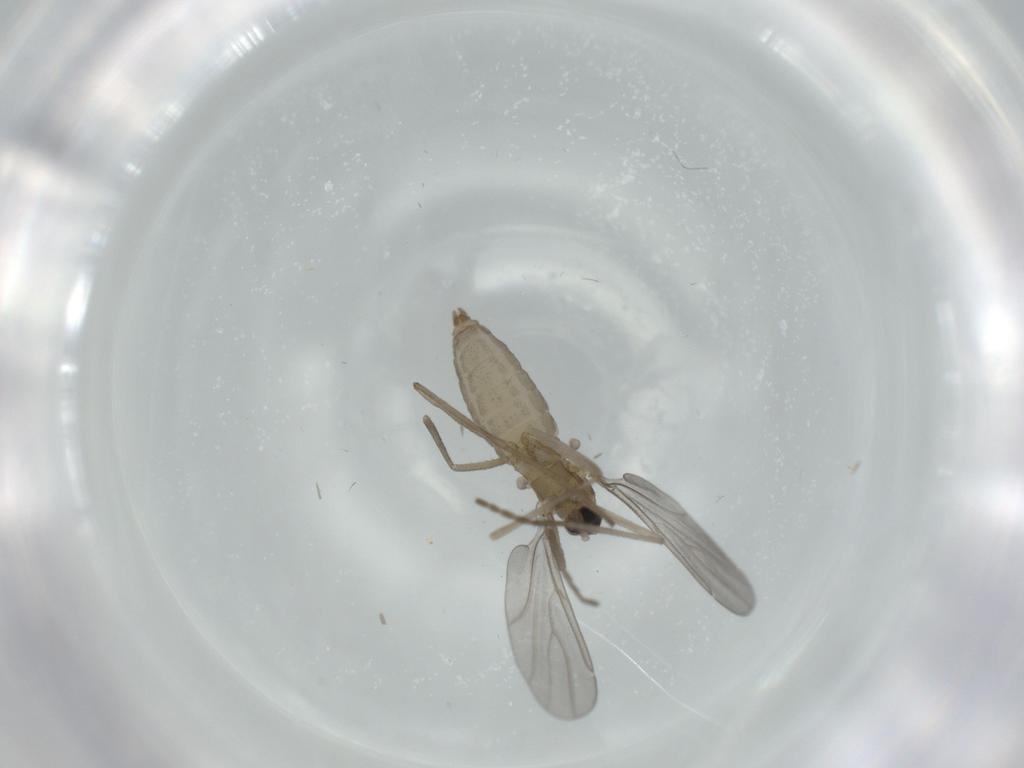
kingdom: Animalia
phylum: Arthropoda
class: Insecta
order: Diptera
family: Cecidomyiidae
